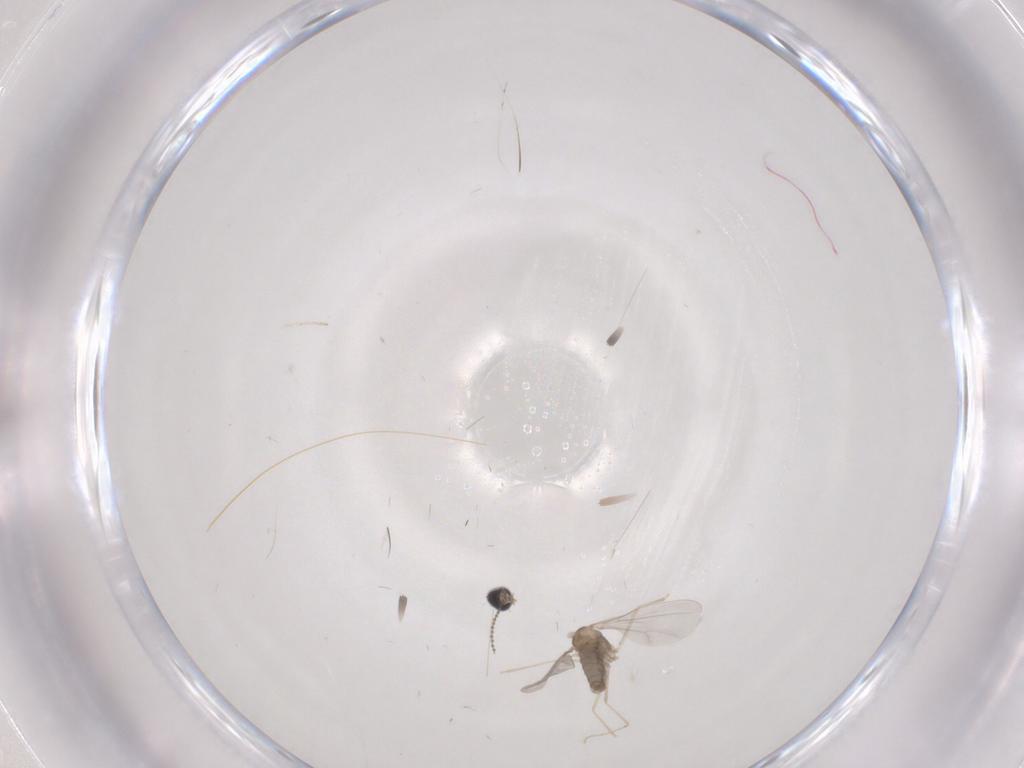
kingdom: Animalia
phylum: Arthropoda
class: Insecta
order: Diptera
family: Cecidomyiidae
